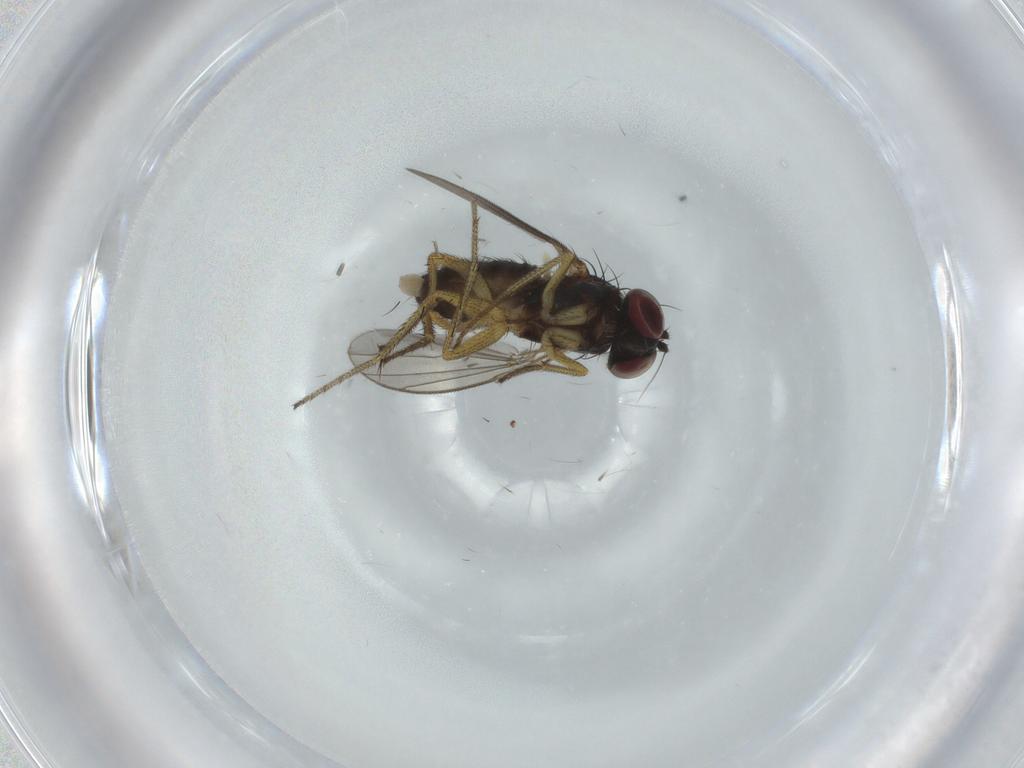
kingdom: Animalia
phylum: Arthropoda
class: Insecta
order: Diptera
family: Dolichopodidae
